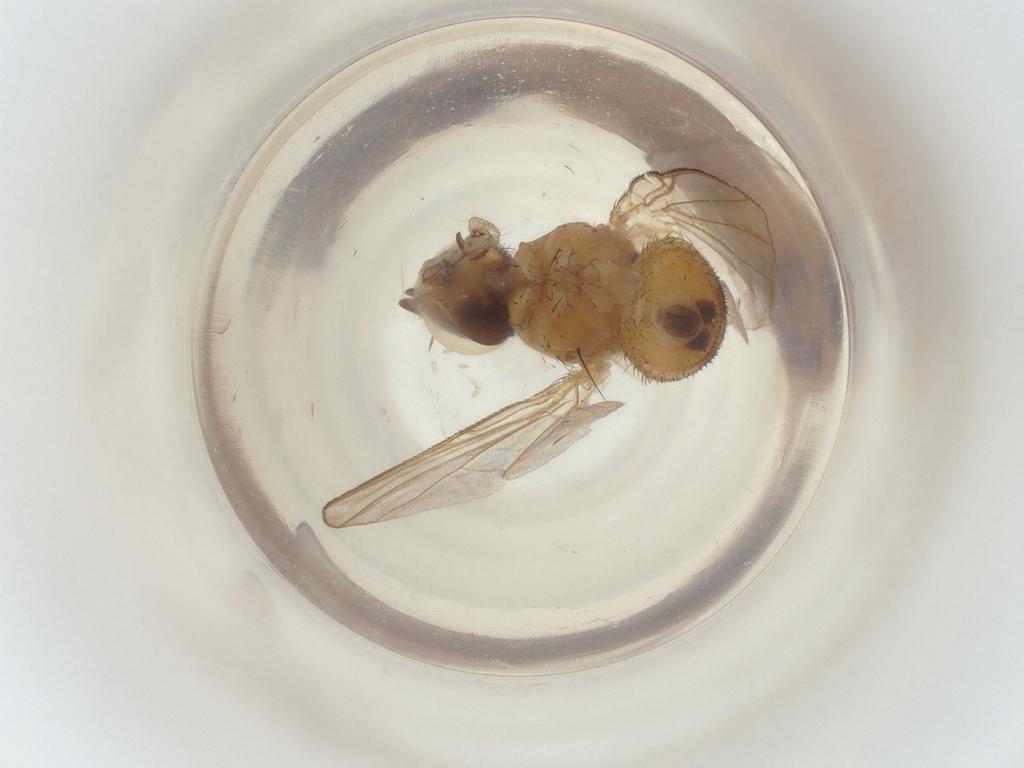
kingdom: Animalia
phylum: Arthropoda
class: Insecta
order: Diptera
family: Muscidae
